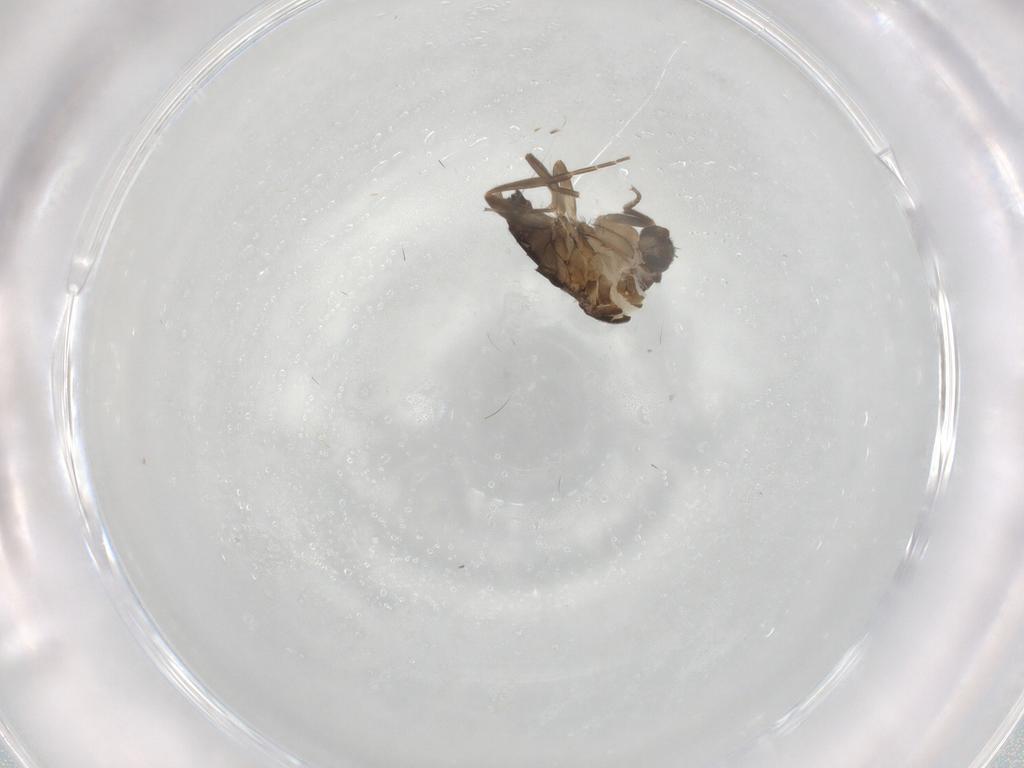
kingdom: Animalia
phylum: Arthropoda
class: Insecta
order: Diptera
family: Phoridae
